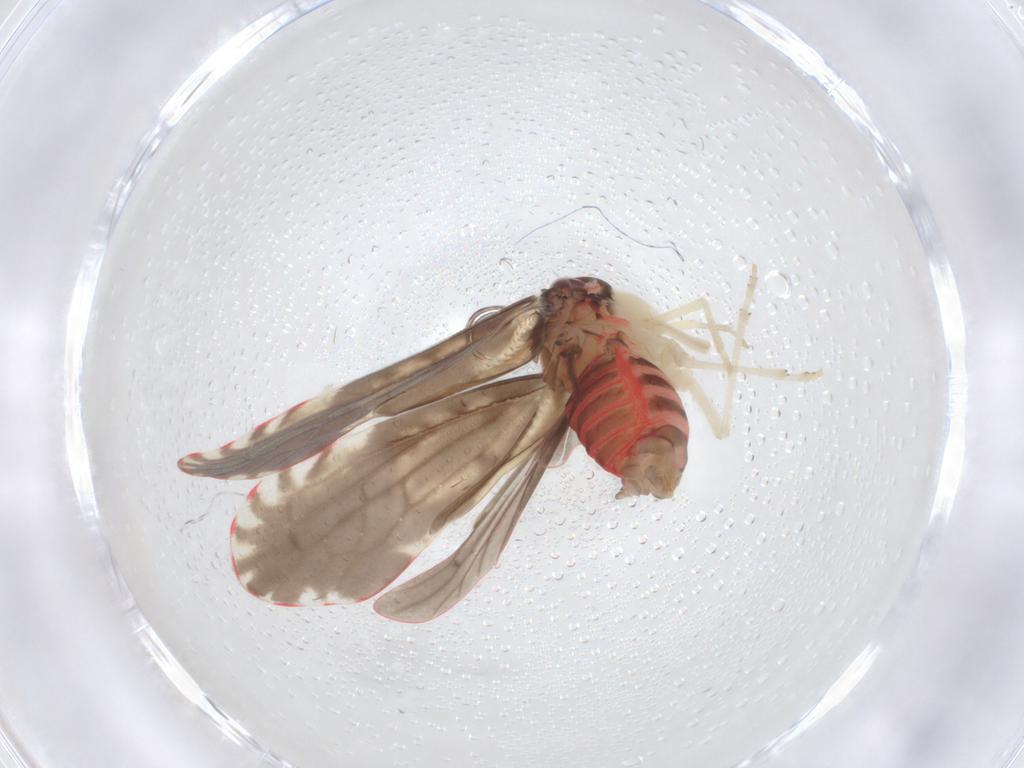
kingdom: Animalia
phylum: Arthropoda
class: Insecta
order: Hemiptera
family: Derbidae
